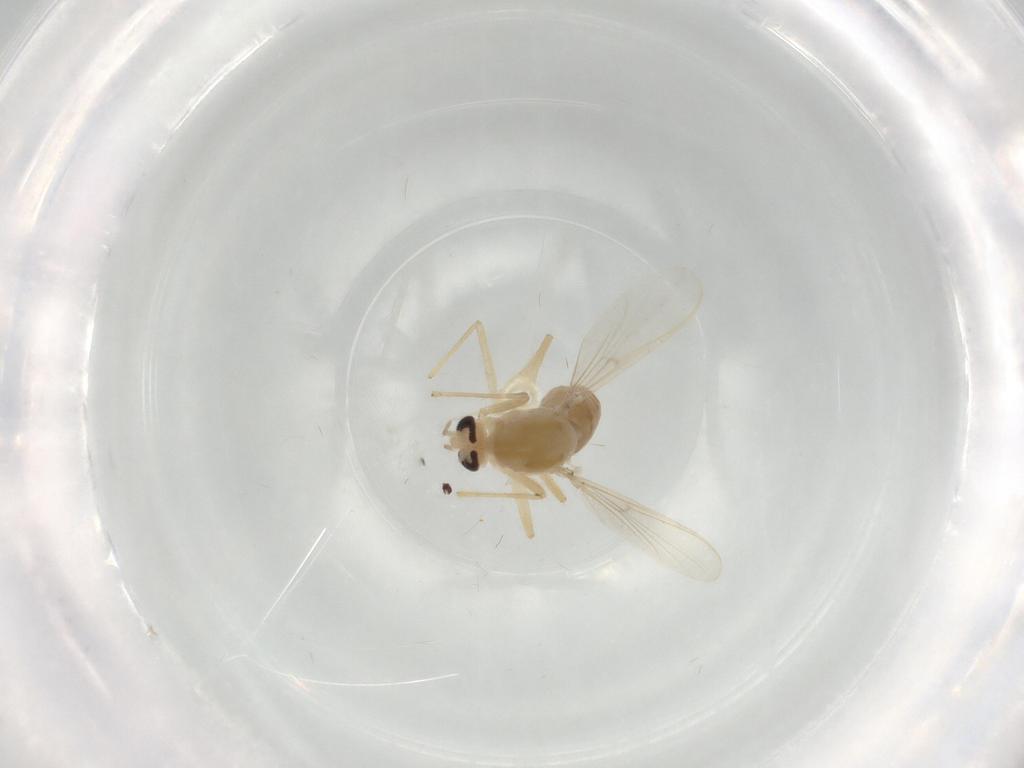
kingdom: Animalia
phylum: Arthropoda
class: Insecta
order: Diptera
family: Chironomidae
